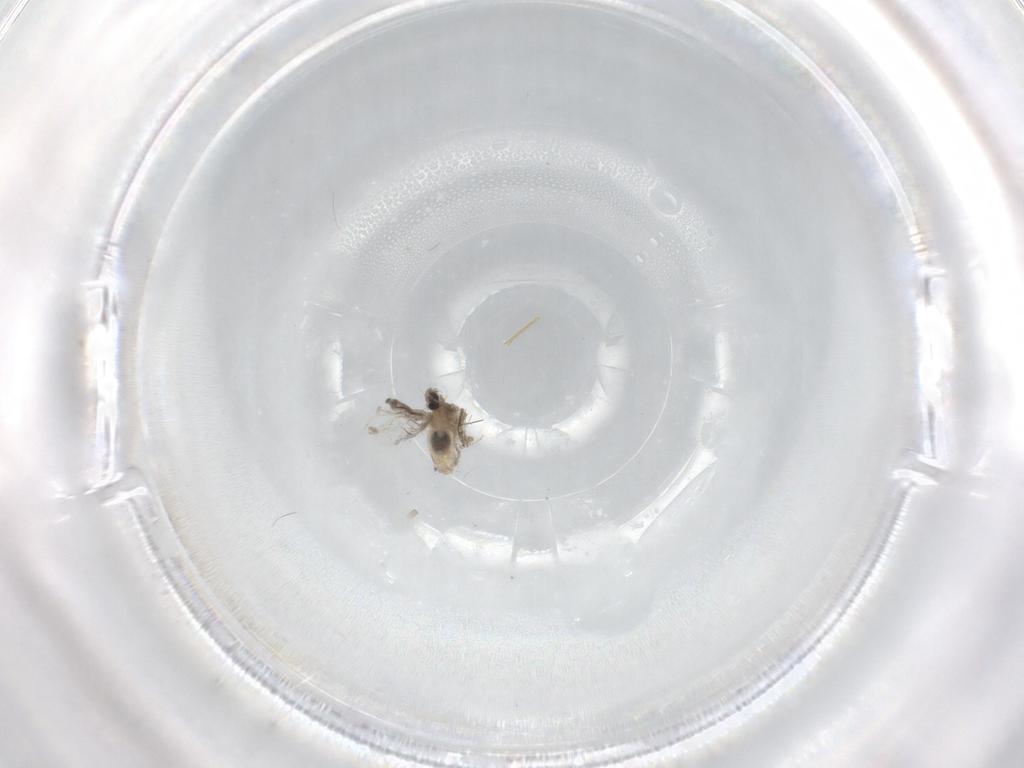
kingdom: Animalia
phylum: Arthropoda
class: Insecta
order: Diptera
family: Cecidomyiidae
